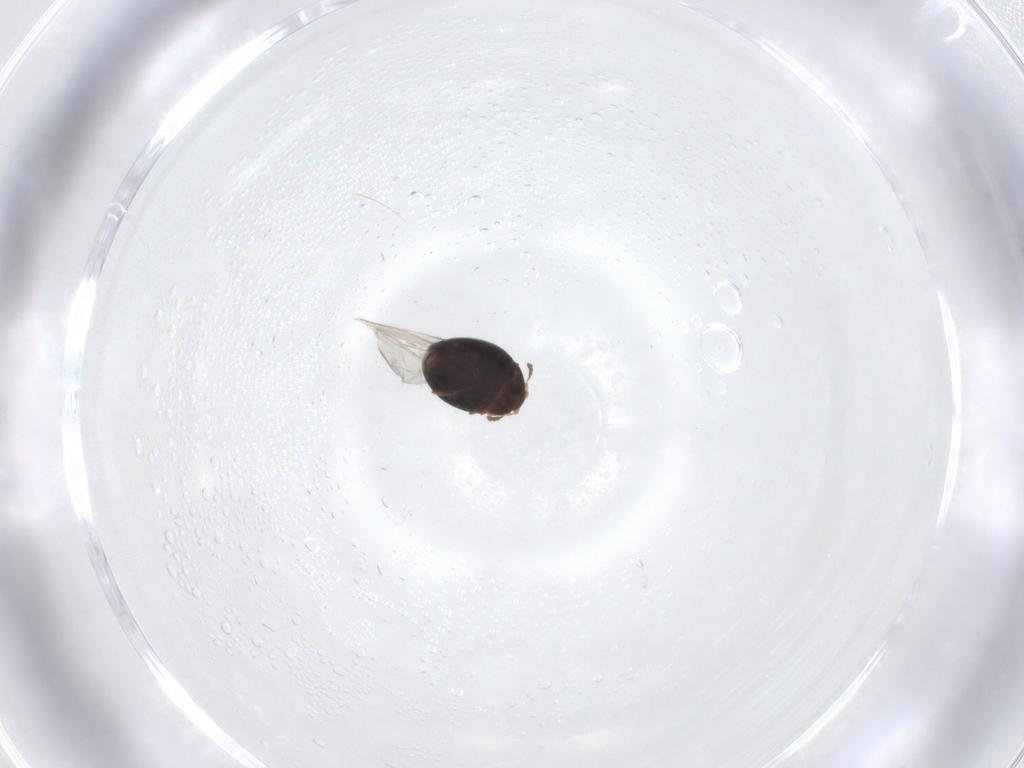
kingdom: Animalia
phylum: Arthropoda
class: Insecta
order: Coleoptera
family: Corylophidae
